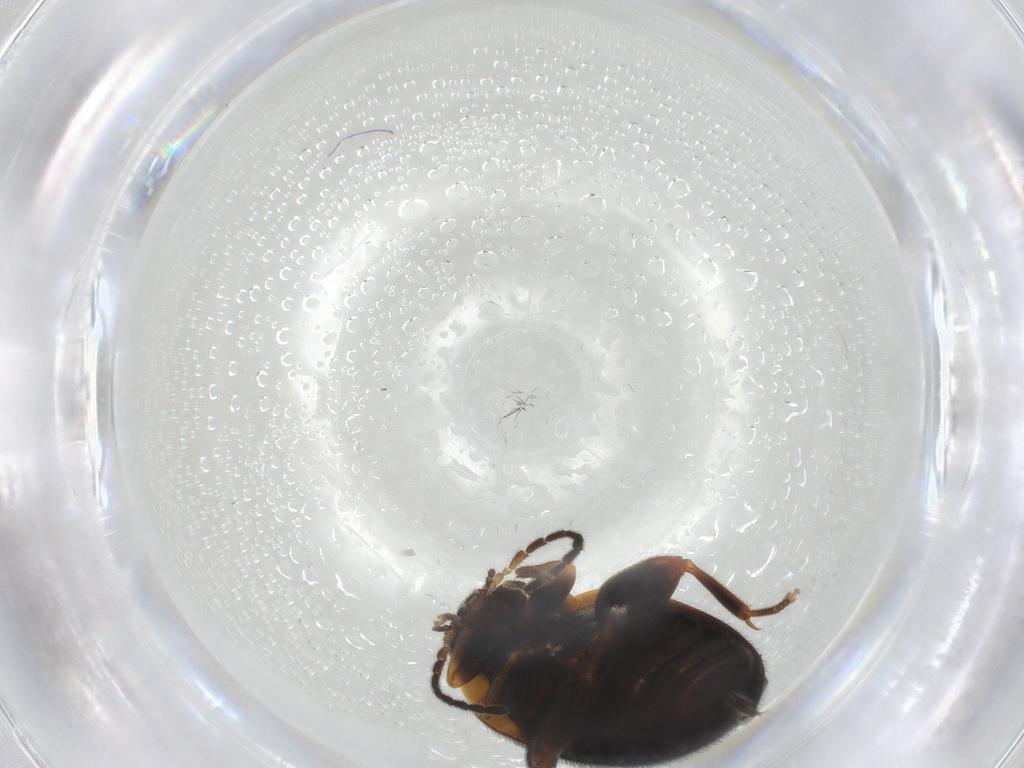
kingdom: Animalia
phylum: Arthropoda
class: Insecta
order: Coleoptera
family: Scirtidae
